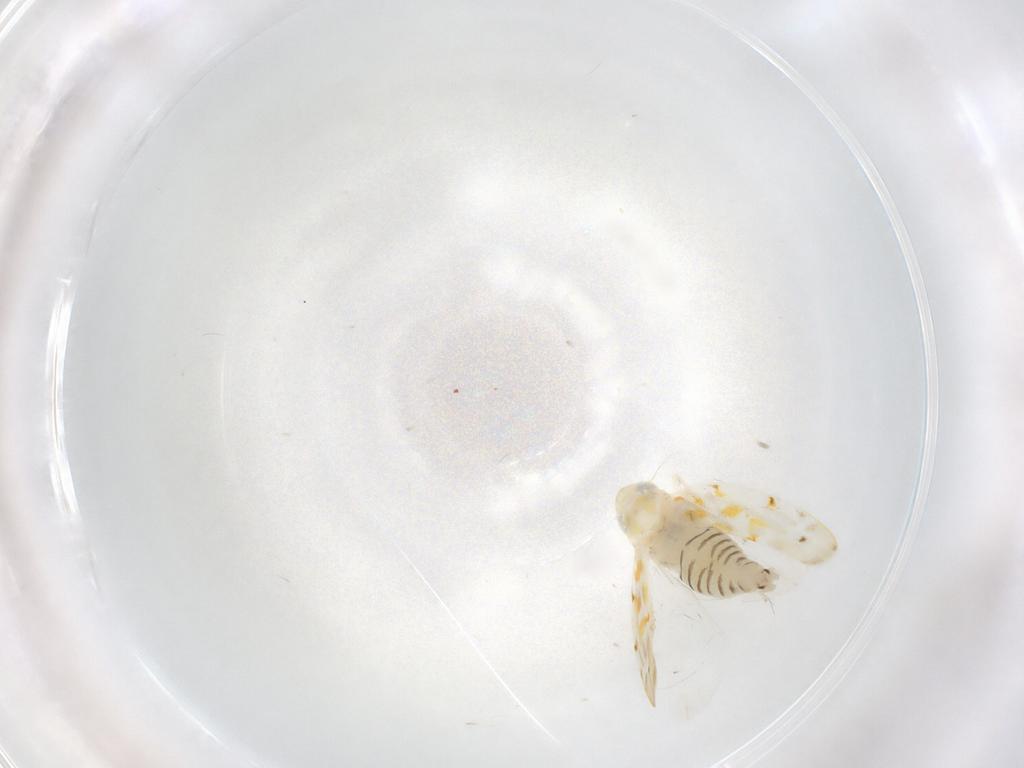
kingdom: Animalia
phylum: Arthropoda
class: Insecta
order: Hemiptera
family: Cicadellidae
